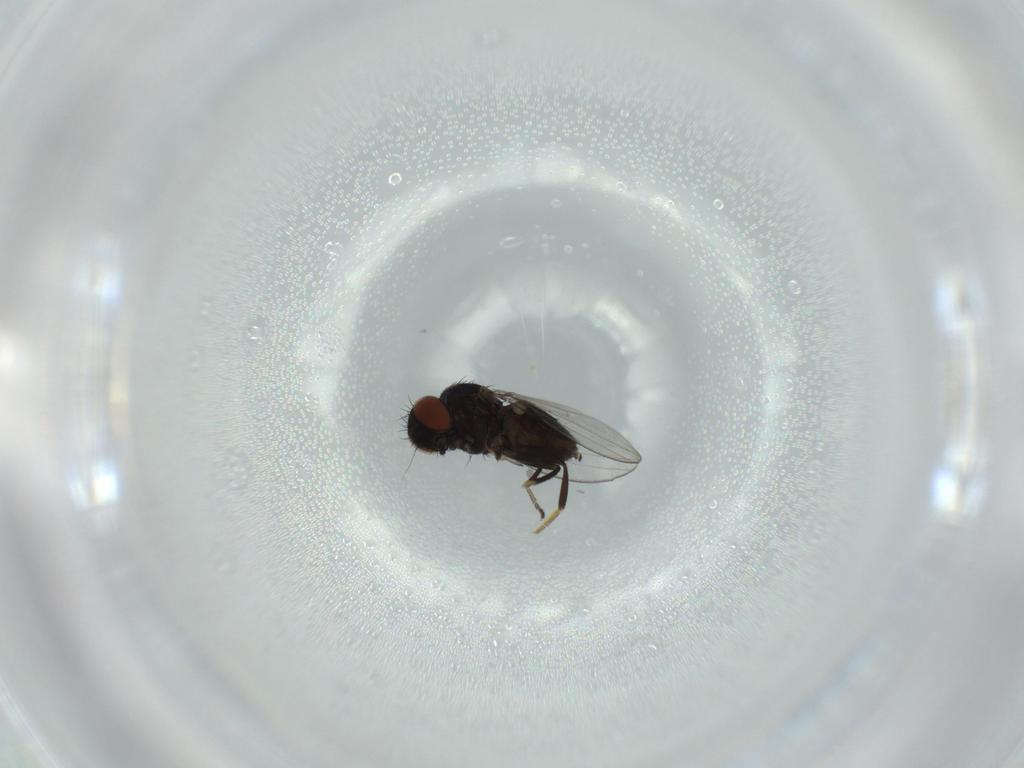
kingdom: Animalia
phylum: Arthropoda
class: Insecta
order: Diptera
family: Milichiidae
